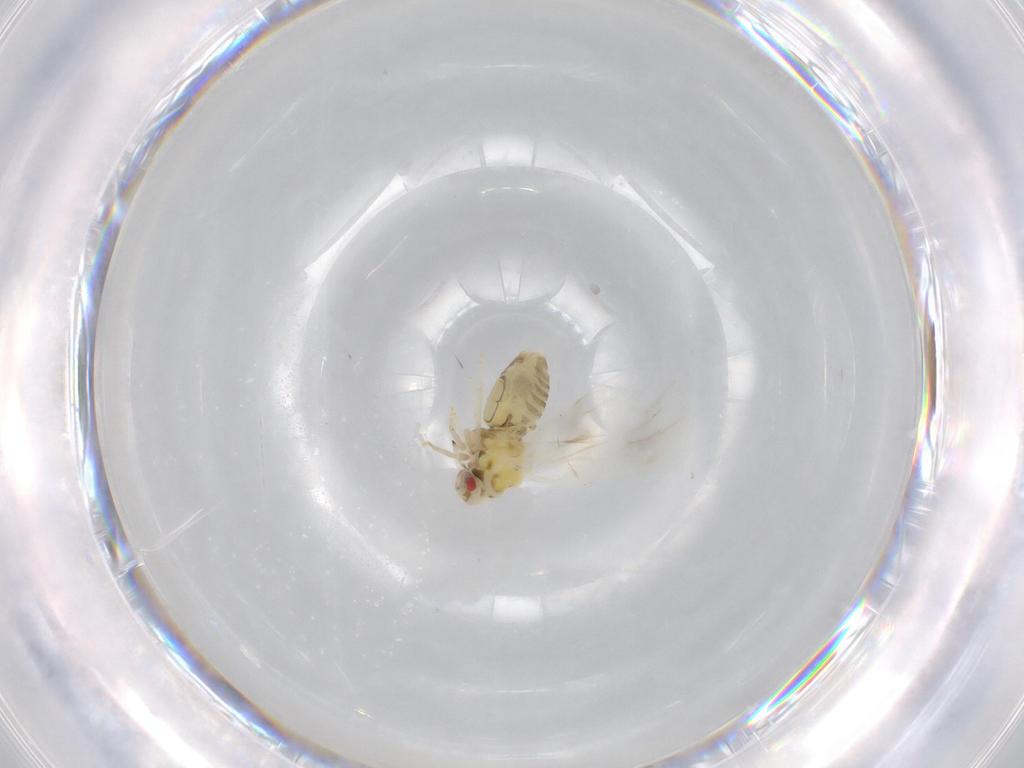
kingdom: Animalia
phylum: Arthropoda
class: Insecta
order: Hemiptera
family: Aleyrodidae
